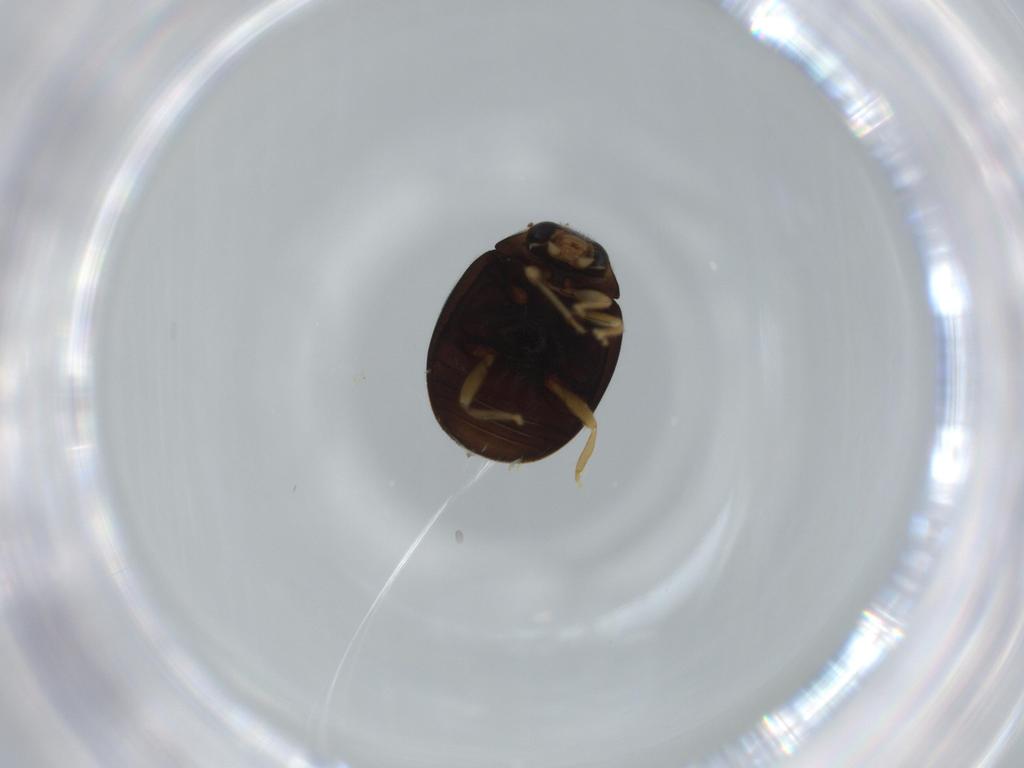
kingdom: Animalia
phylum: Arthropoda
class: Insecta
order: Coleoptera
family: Coccinellidae
